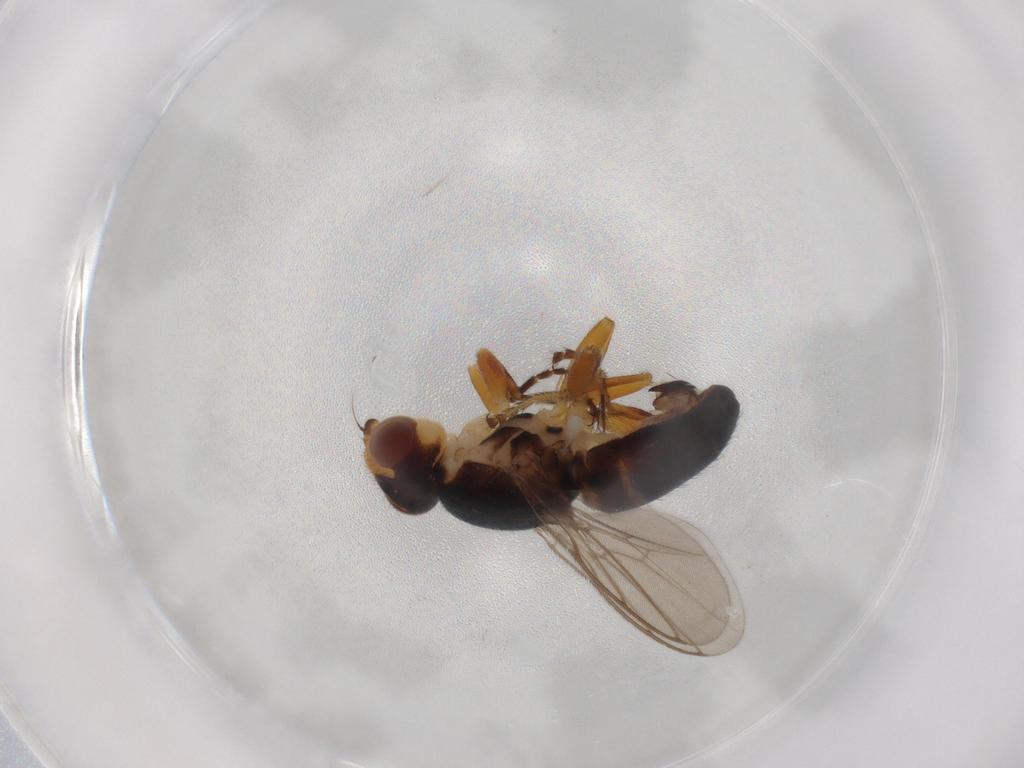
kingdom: Animalia
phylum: Arthropoda
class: Insecta
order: Diptera
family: Chloropidae
